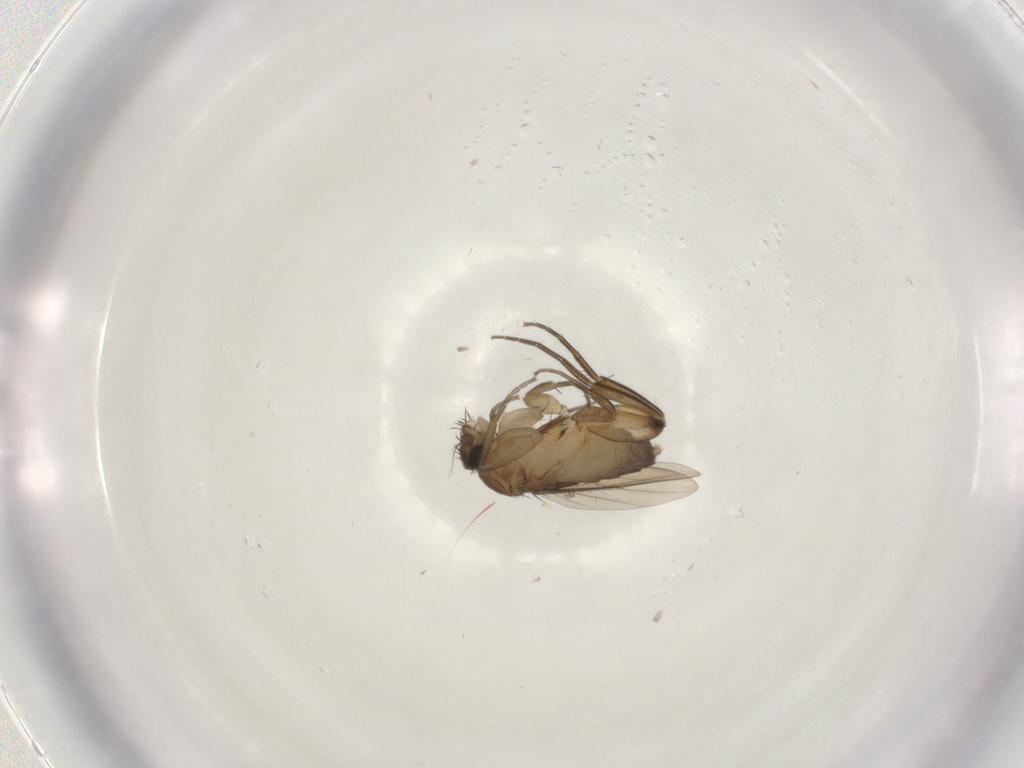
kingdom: Animalia
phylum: Arthropoda
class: Insecta
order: Diptera
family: Phoridae
